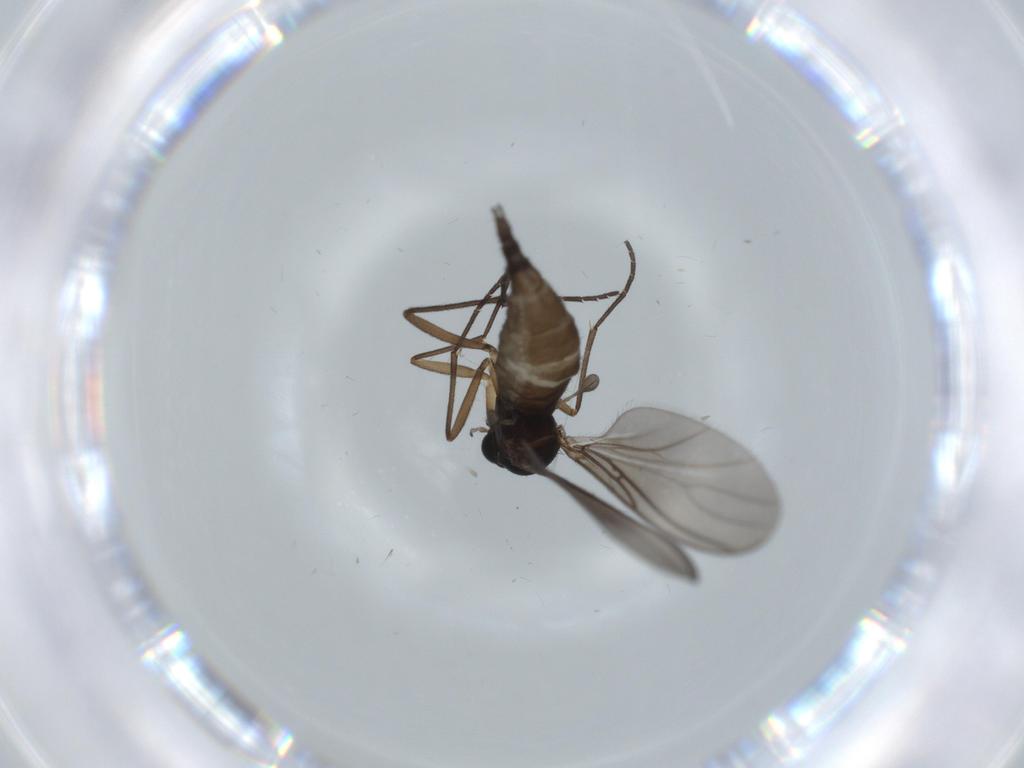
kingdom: Animalia
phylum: Arthropoda
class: Insecta
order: Diptera
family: Sciaridae
